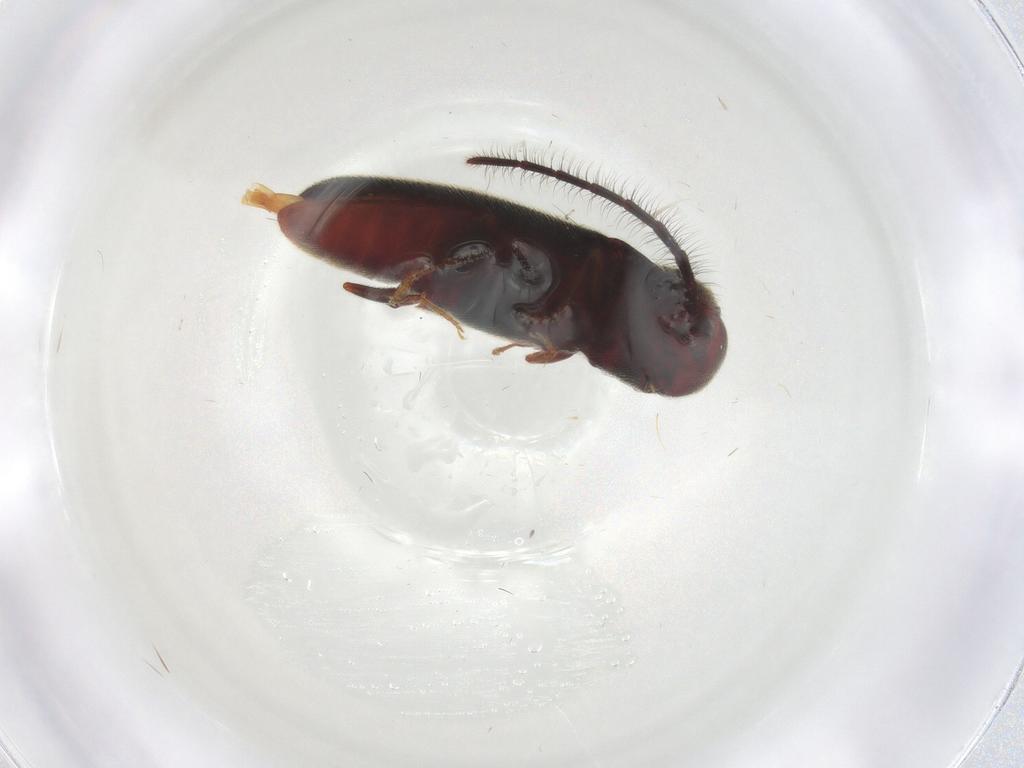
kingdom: Animalia
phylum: Arthropoda
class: Insecta
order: Coleoptera
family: Eucnemidae
